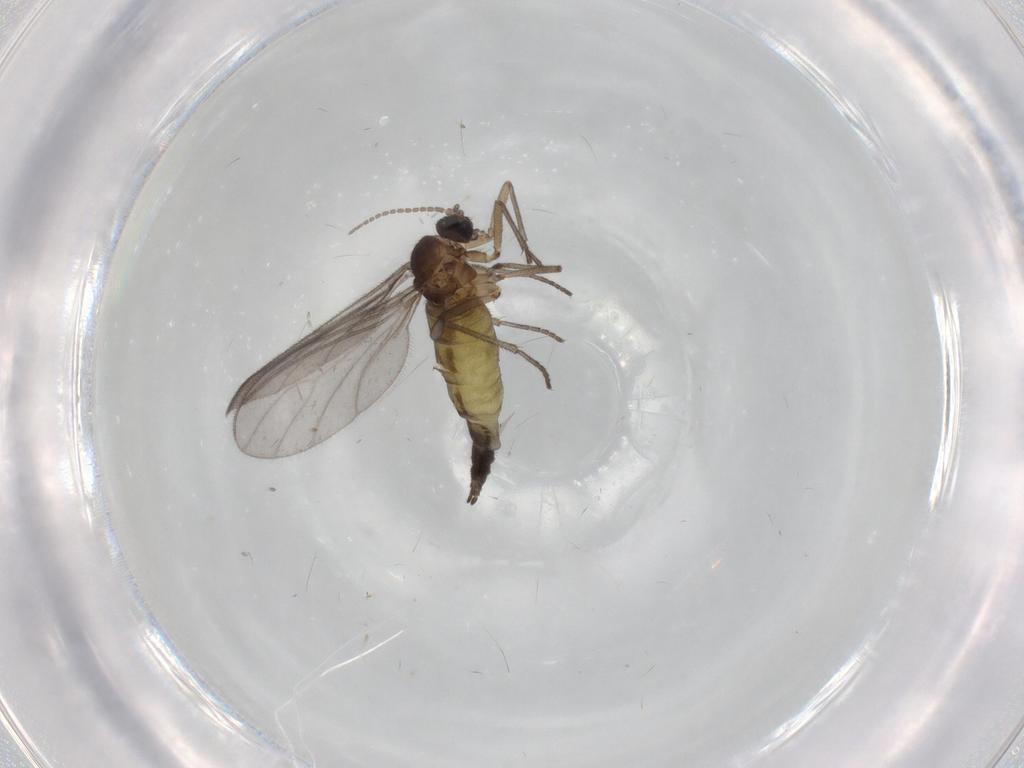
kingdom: Animalia
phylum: Arthropoda
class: Insecta
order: Diptera
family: Cecidomyiidae
